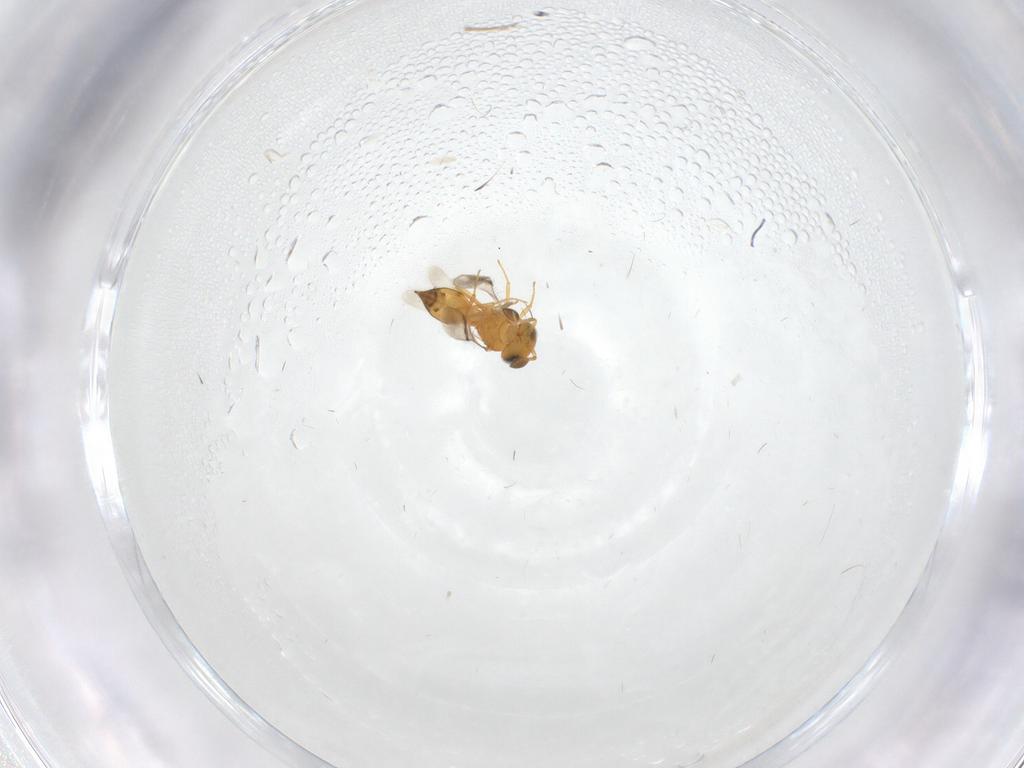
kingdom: Animalia
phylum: Arthropoda
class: Insecta
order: Hymenoptera
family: Scelionidae
